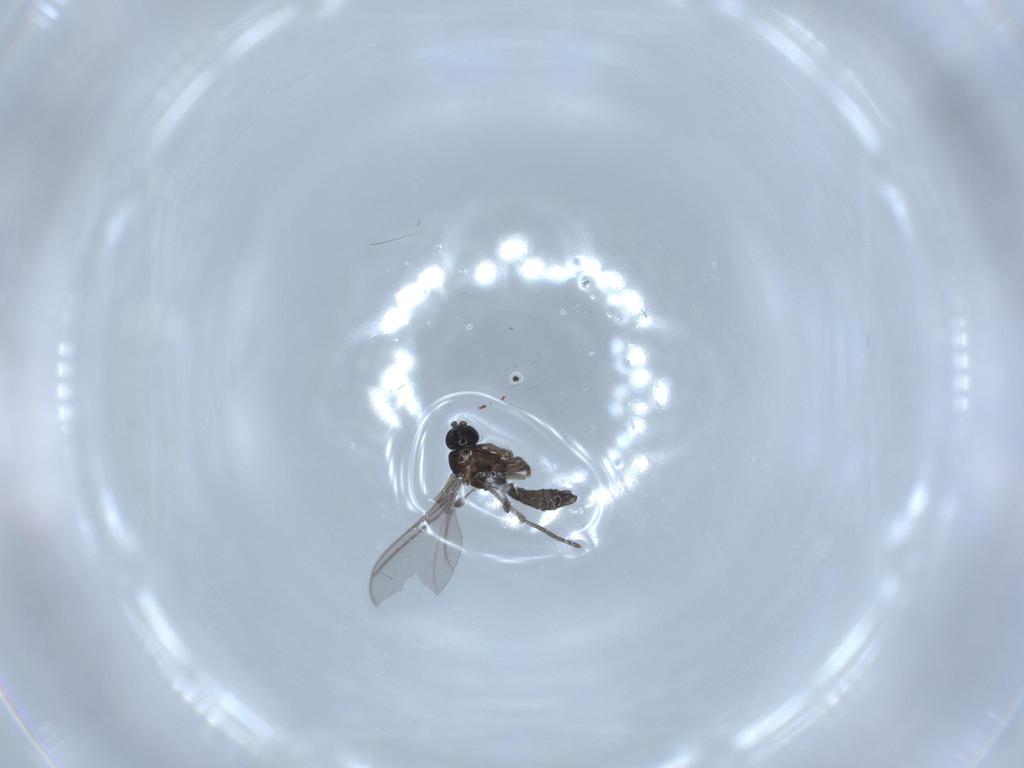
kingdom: Animalia
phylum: Arthropoda
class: Insecta
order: Diptera
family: Sciaridae
